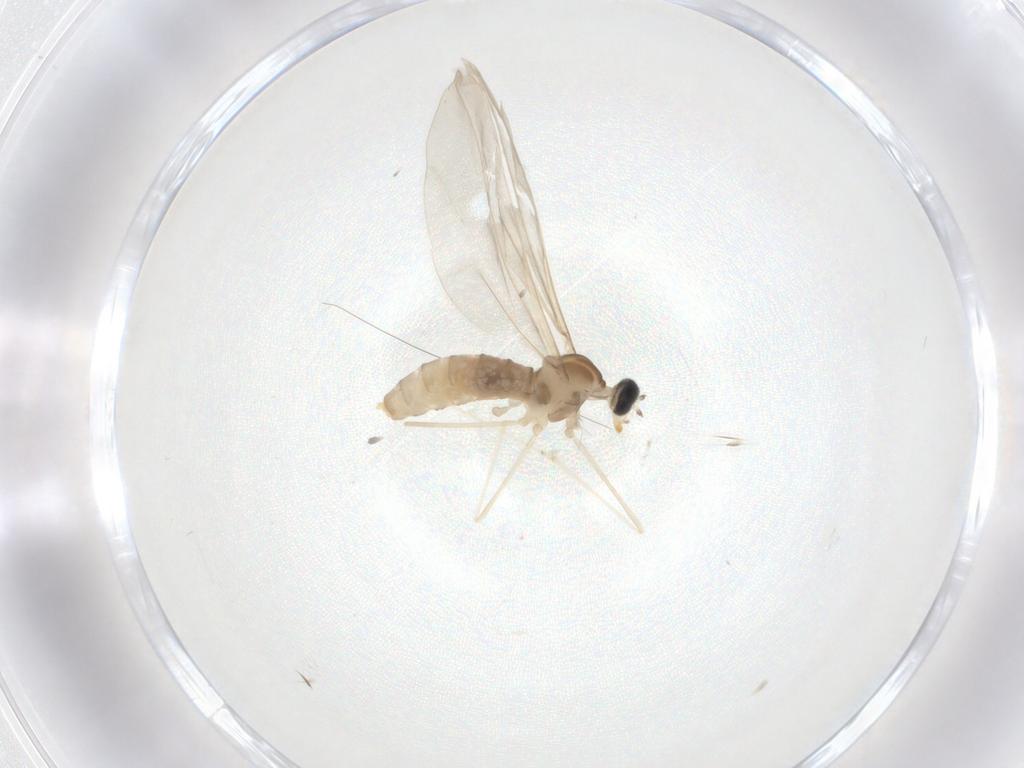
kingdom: Animalia
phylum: Arthropoda
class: Insecta
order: Diptera
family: Cecidomyiidae
